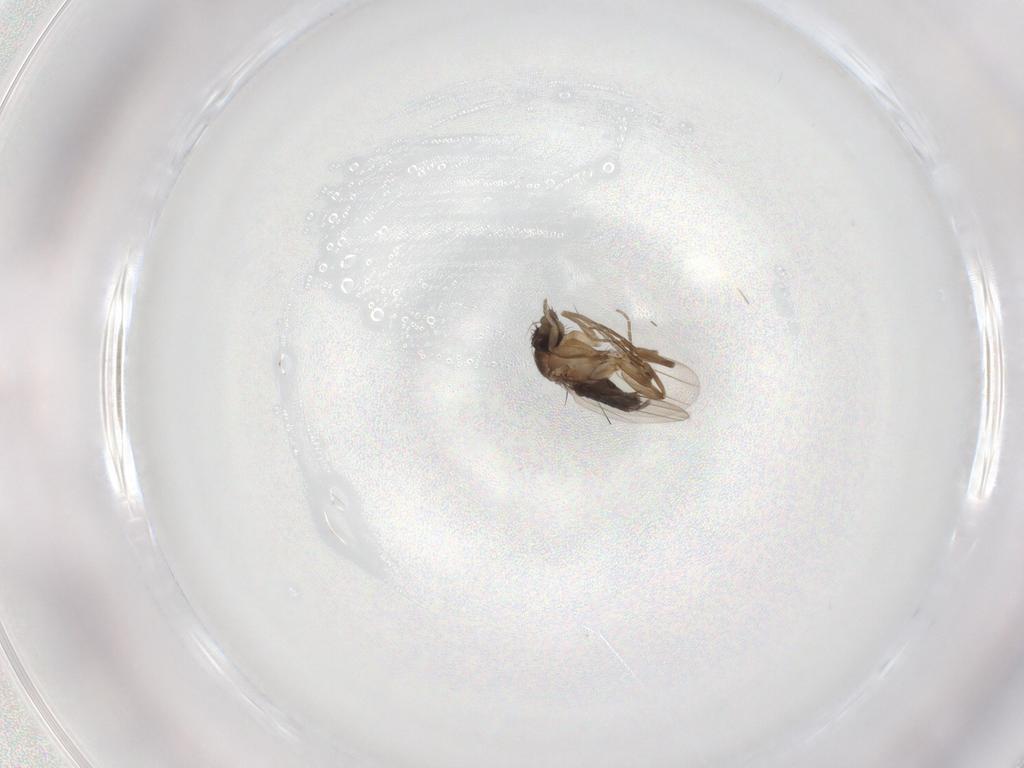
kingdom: Animalia
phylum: Arthropoda
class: Insecta
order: Diptera
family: Phoridae
